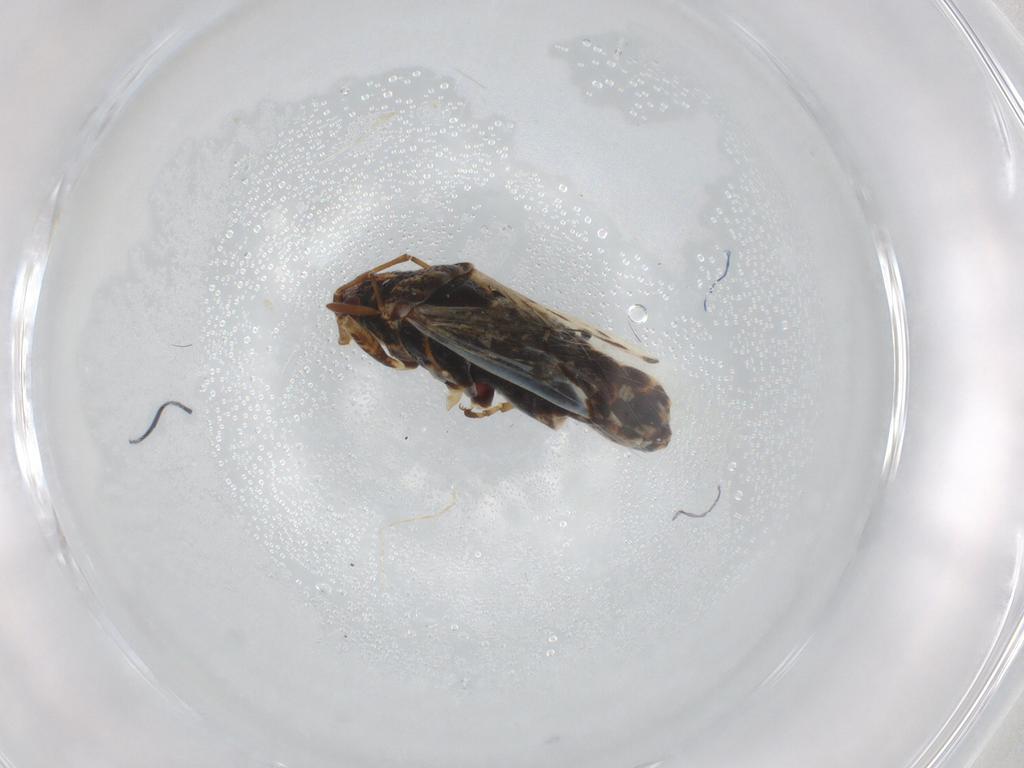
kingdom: Animalia
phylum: Arthropoda
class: Insecta
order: Hemiptera
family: Lygaeidae
